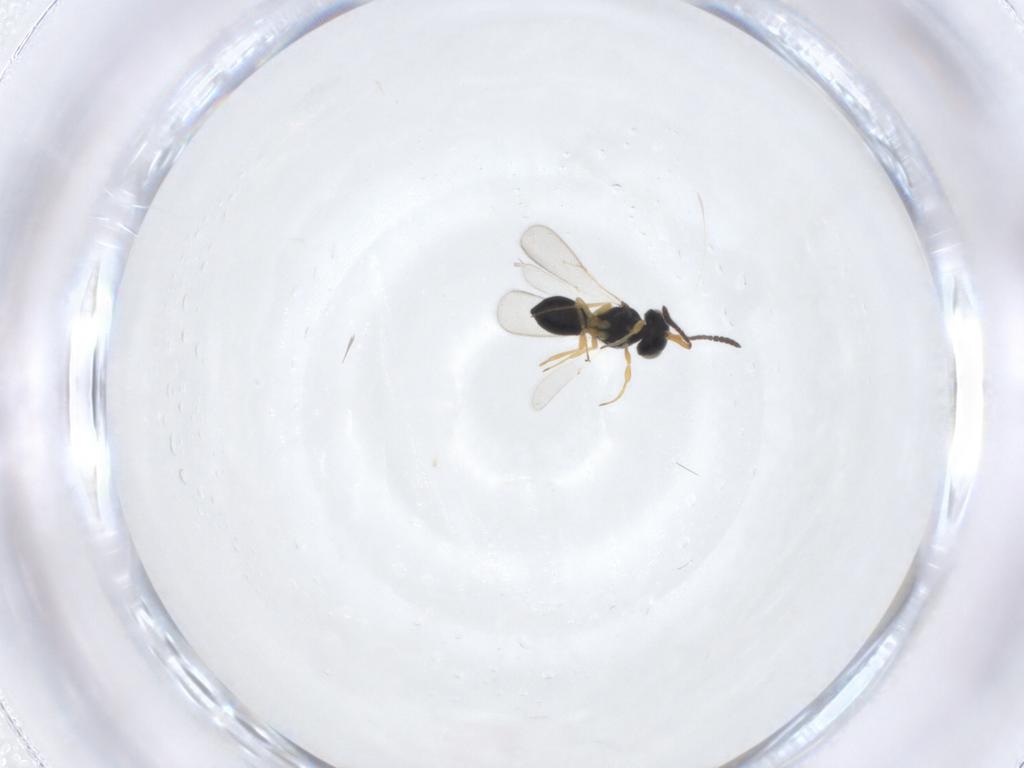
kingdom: Animalia
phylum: Arthropoda
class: Insecta
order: Hymenoptera
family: Scelionidae
